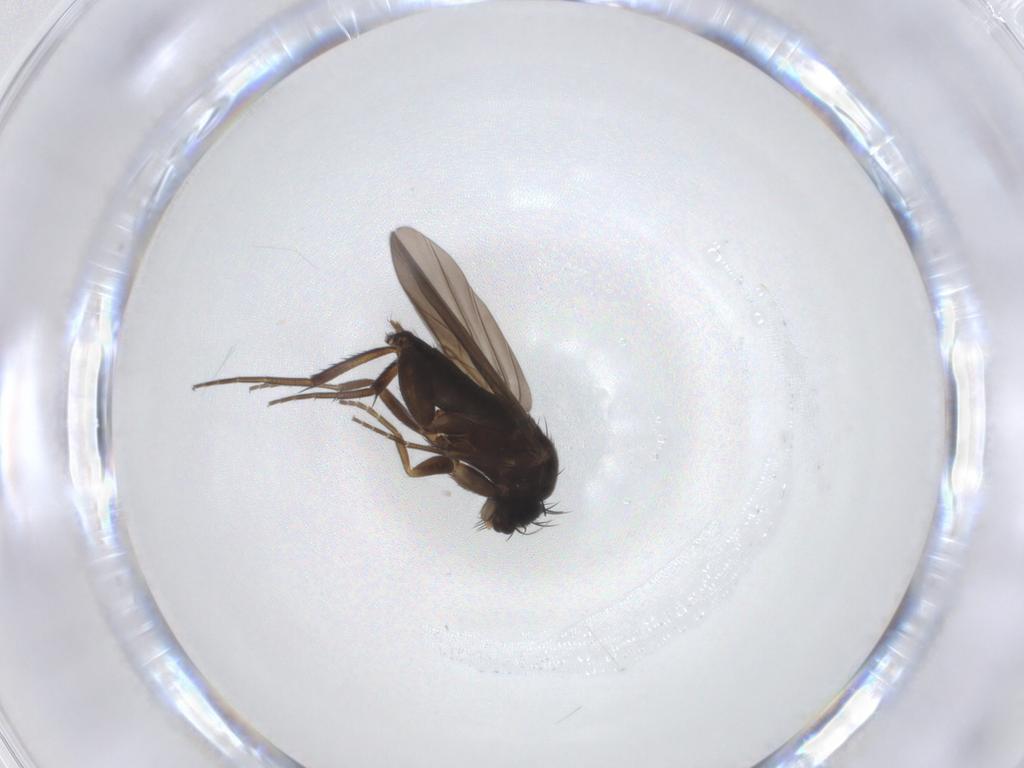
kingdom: Animalia
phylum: Arthropoda
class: Insecta
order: Diptera
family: Phoridae
